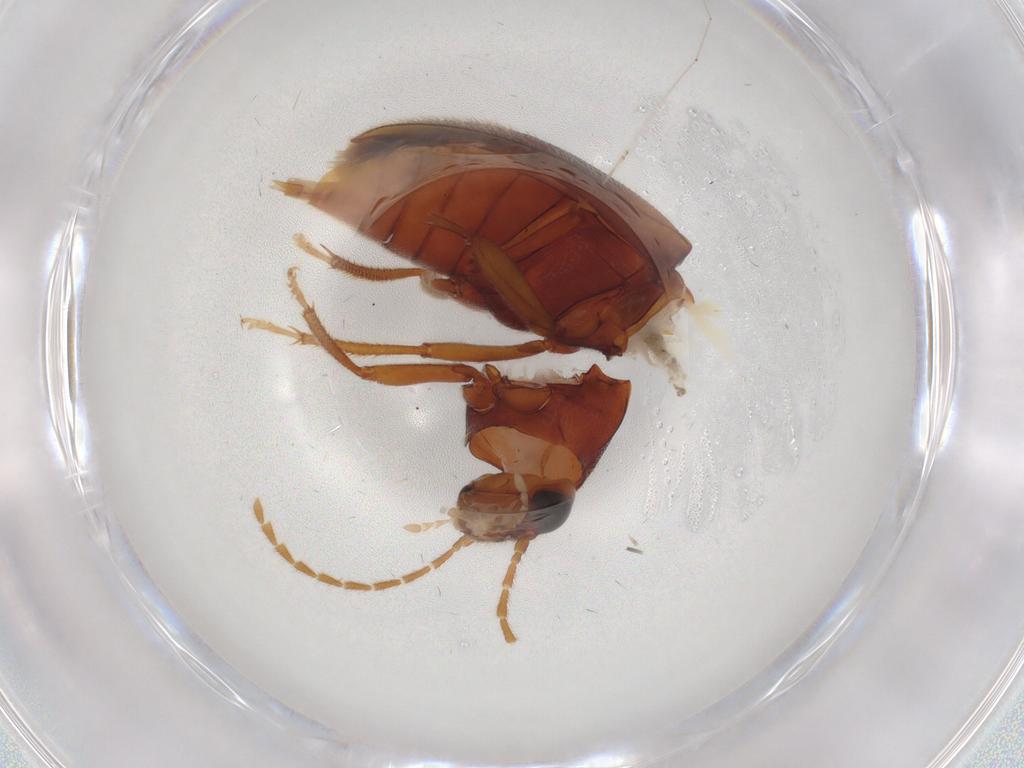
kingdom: Animalia
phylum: Arthropoda
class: Insecta
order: Coleoptera
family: Ptilodactylidae
